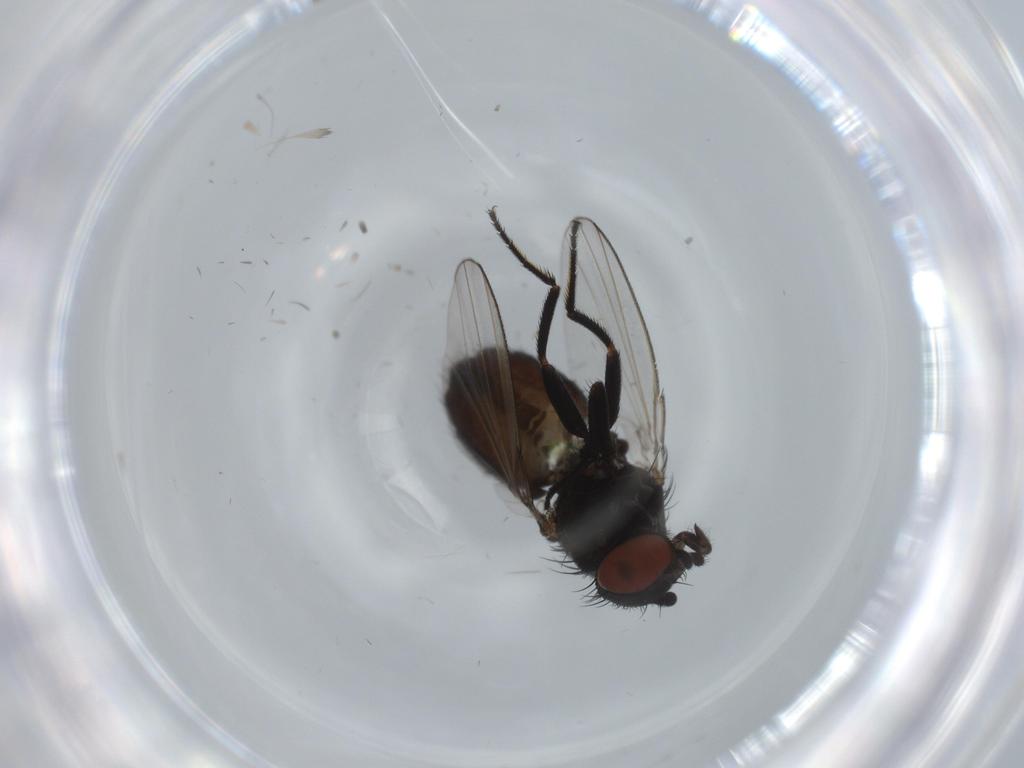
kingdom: Animalia
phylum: Arthropoda
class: Insecta
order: Diptera
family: Milichiidae
